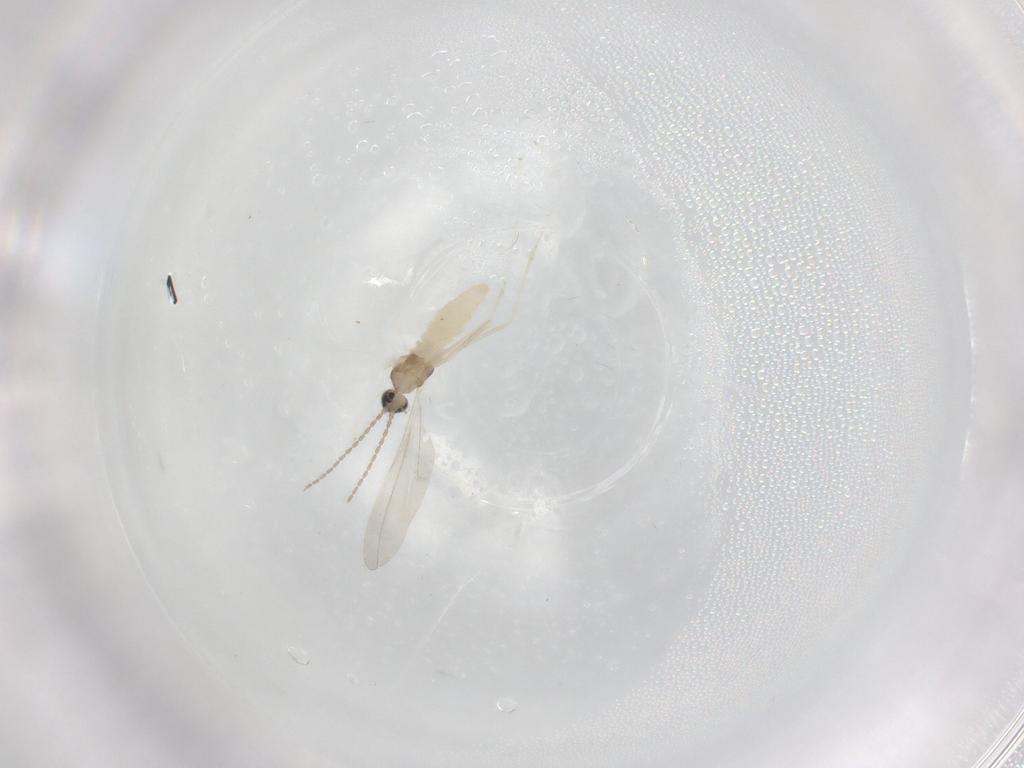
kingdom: Animalia
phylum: Arthropoda
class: Insecta
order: Diptera
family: Cecidomyiidae
